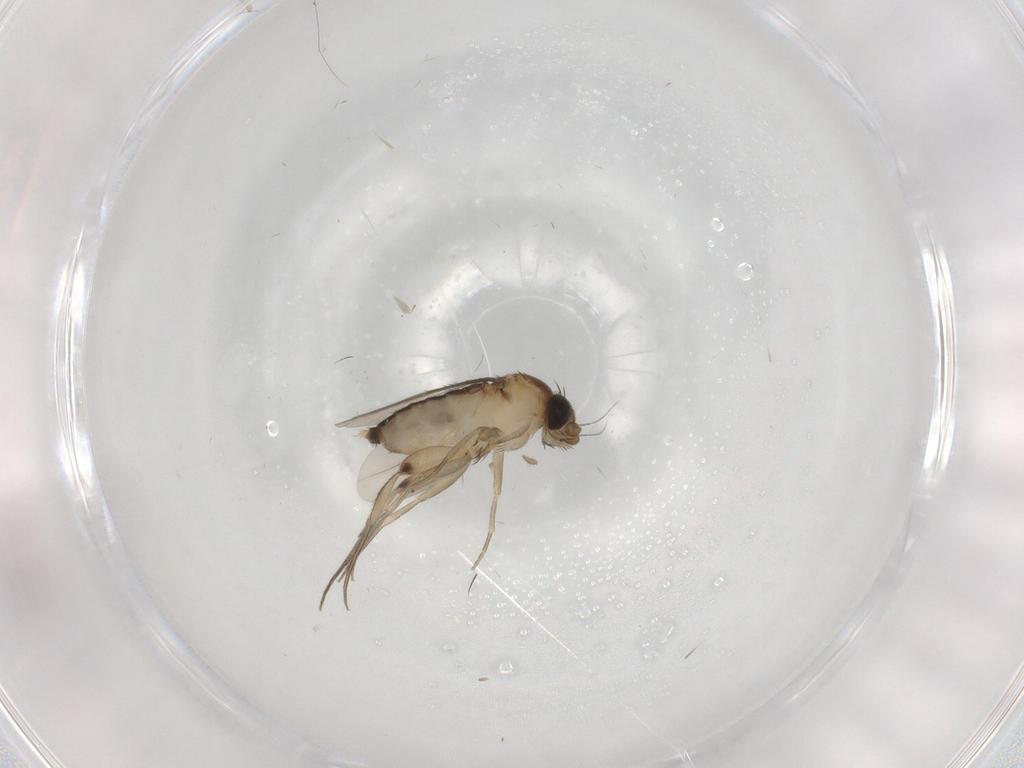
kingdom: Animalia
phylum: Arthropoda
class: Insecta
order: Diptera
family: Phoridae
